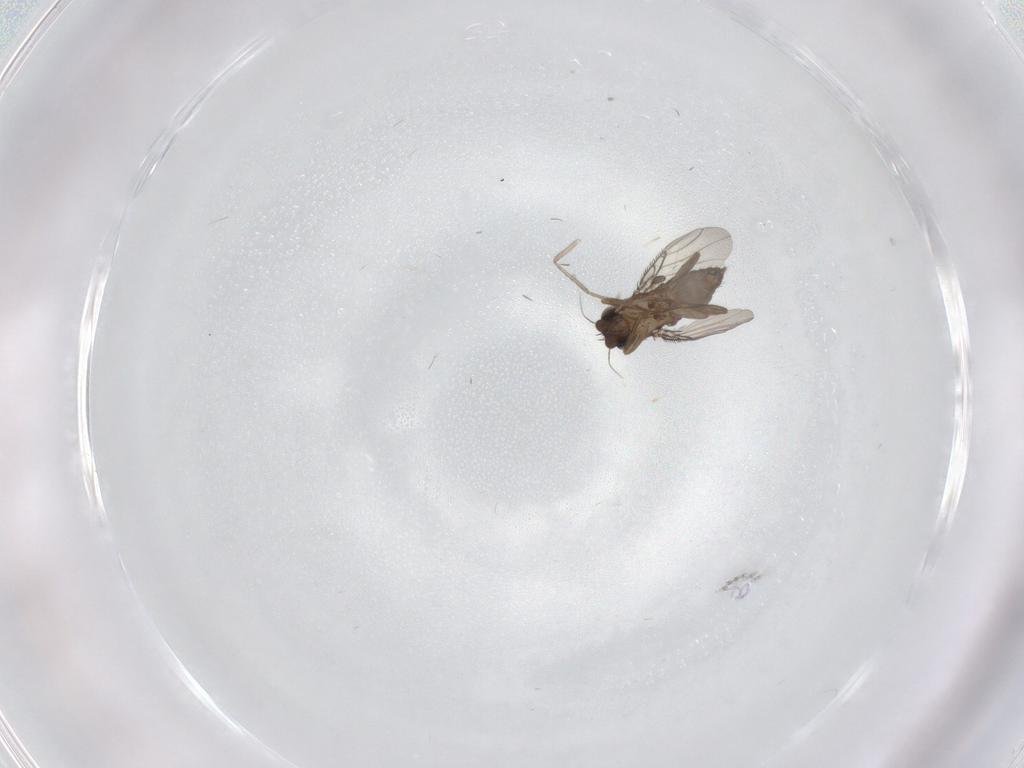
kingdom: Animalia
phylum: Arthropoda
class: Insecta
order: Diptera
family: Phoridae
